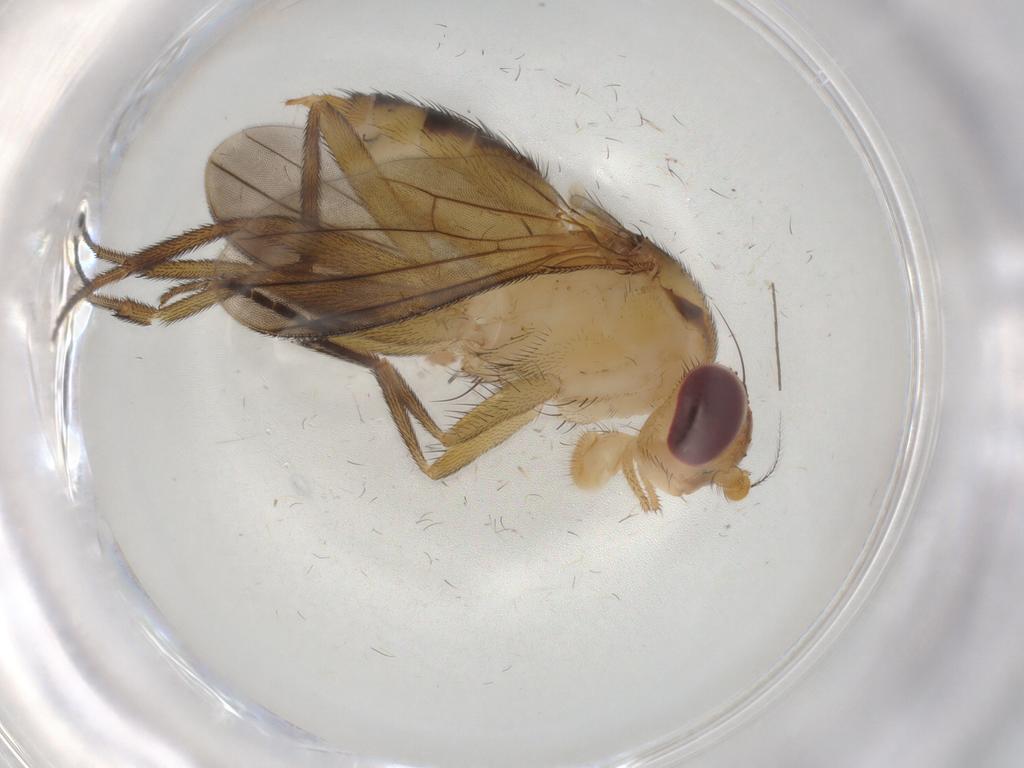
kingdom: Animalia
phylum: Arthropoda
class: Insecta
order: Diptera
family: Clusiidae
